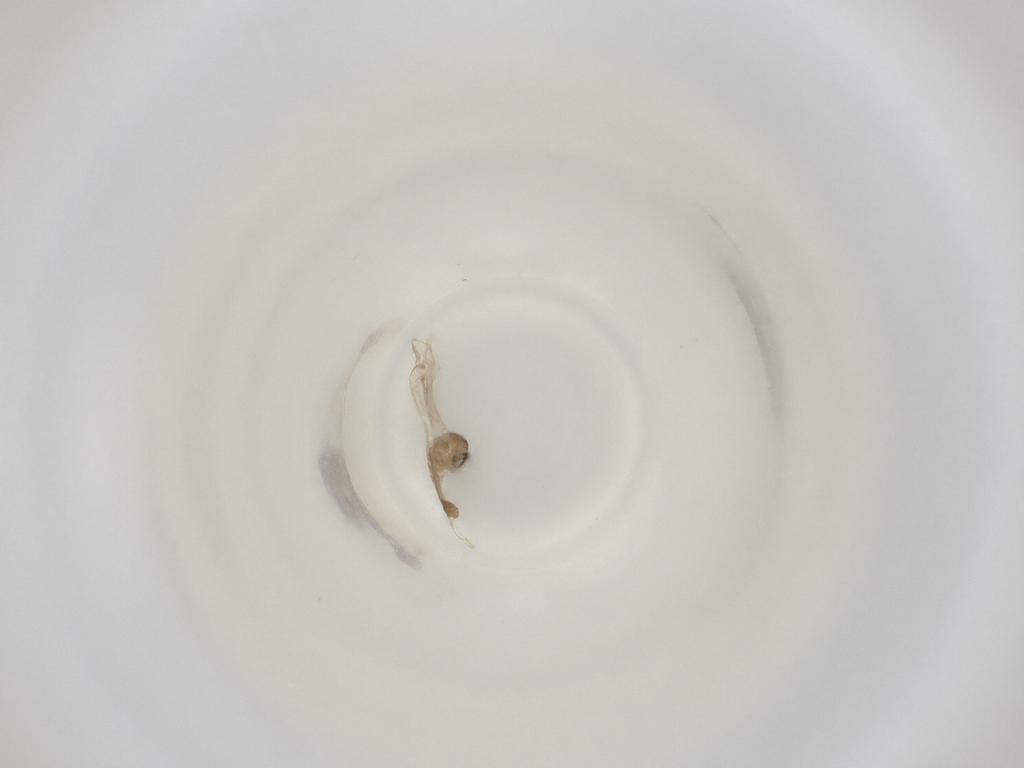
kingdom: Animalia
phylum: Arthropoda
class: Insecta
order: Diptera
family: Cecidomyiidae
